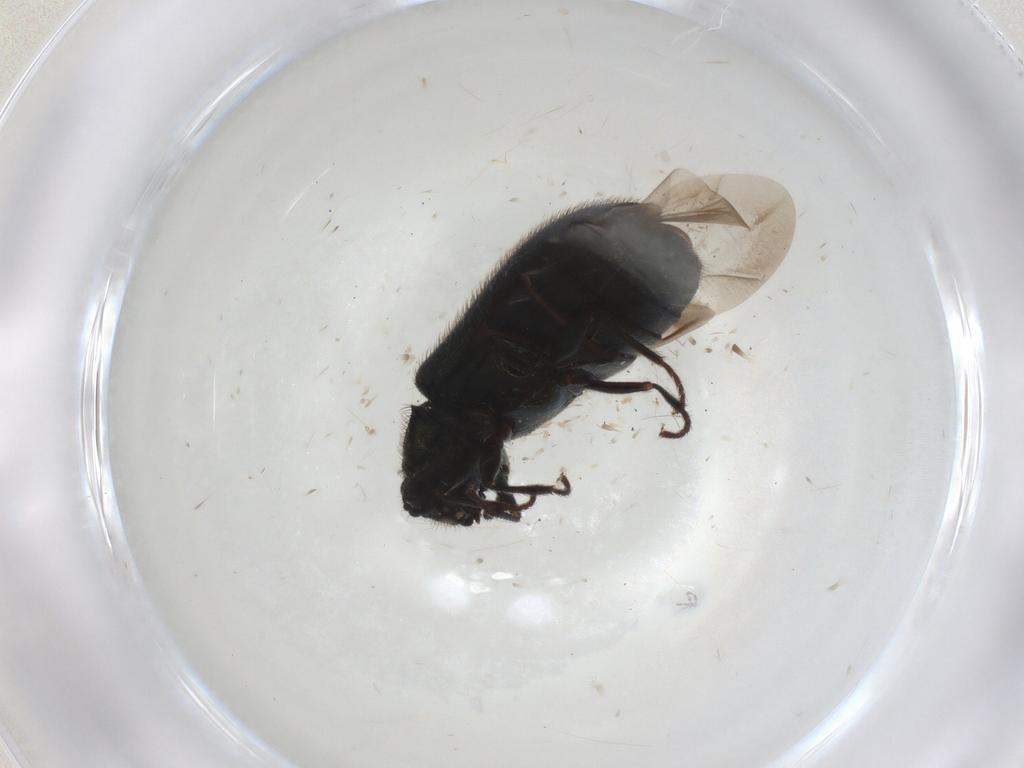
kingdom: Animalia
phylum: Arthropoda
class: Insecta
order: Coleoptera
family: Melyridae
